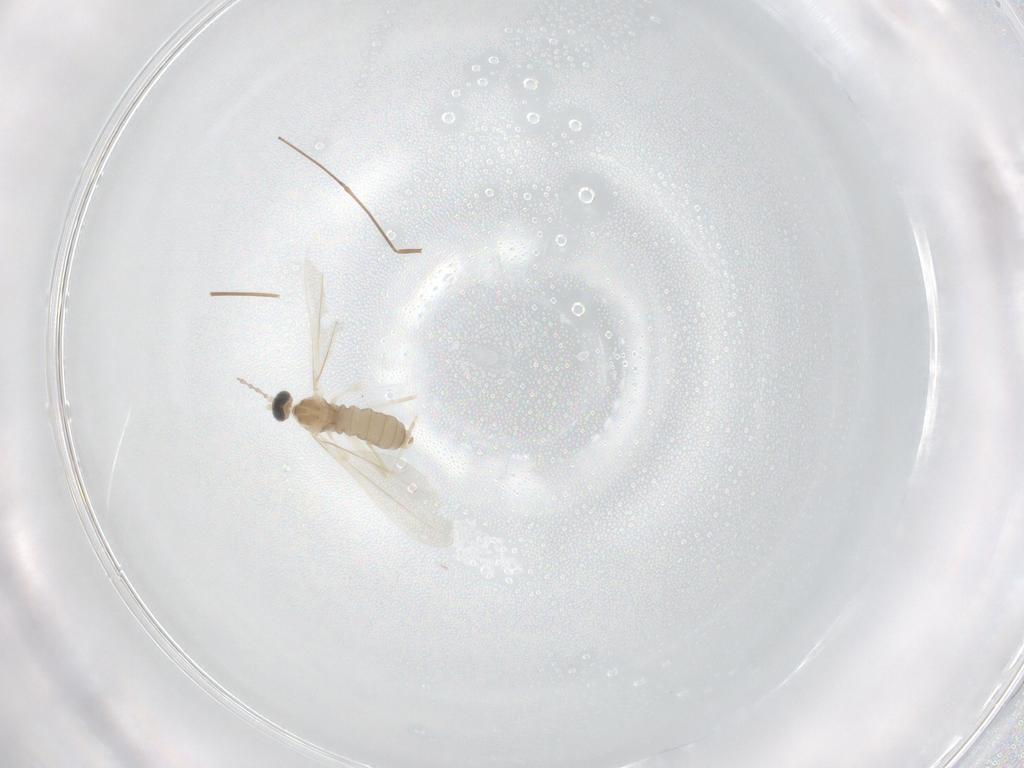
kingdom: Animalia
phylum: Arthropoda
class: Insecta
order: Diptera
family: Cecidomyiidae
